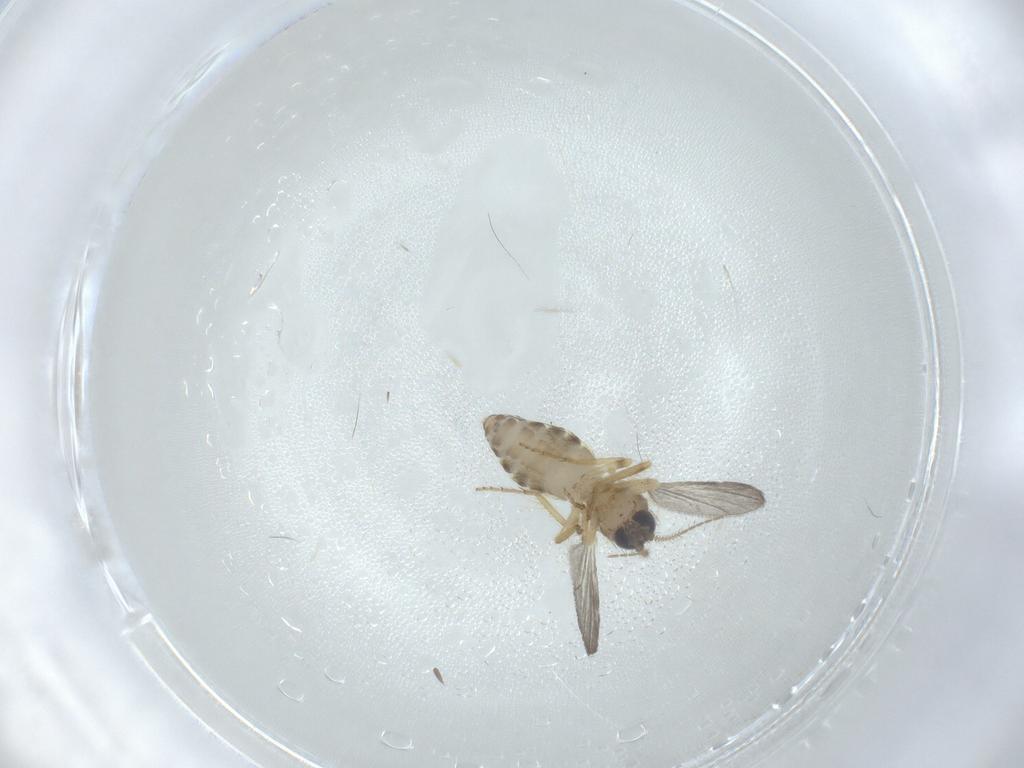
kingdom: Animalia
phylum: Arthropoda
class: Insecta
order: Diptera
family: Ceratopogonidae
